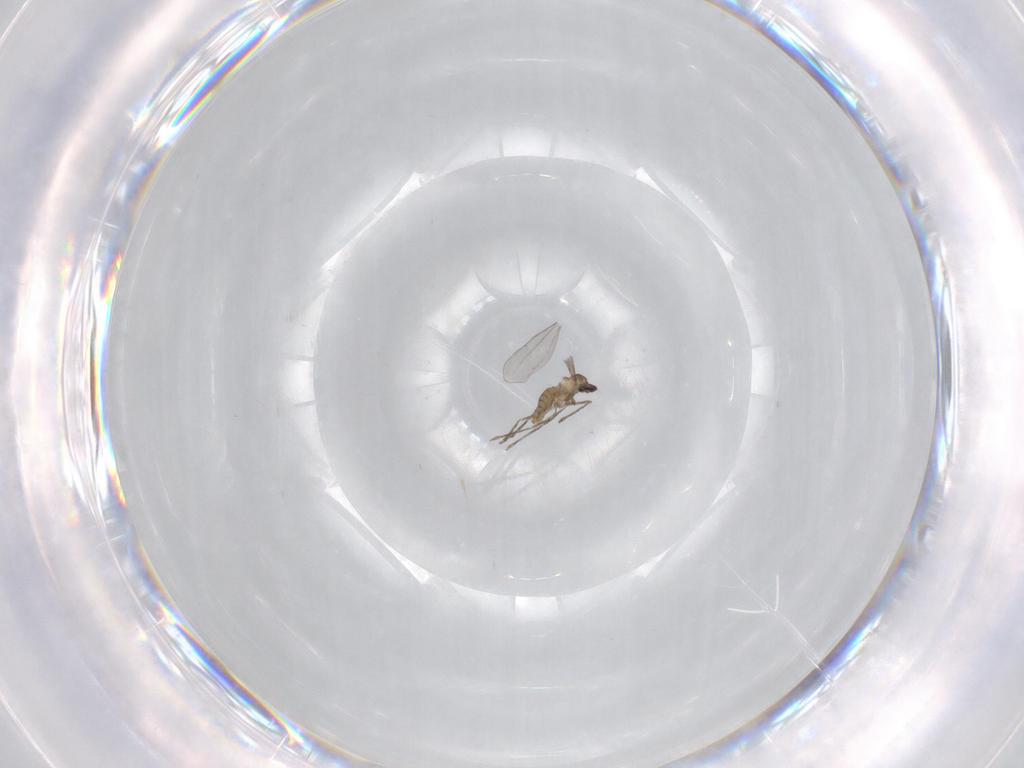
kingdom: Animalia
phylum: Arthropoda
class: Insecta
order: Diptera
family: Cecidomyiidae
